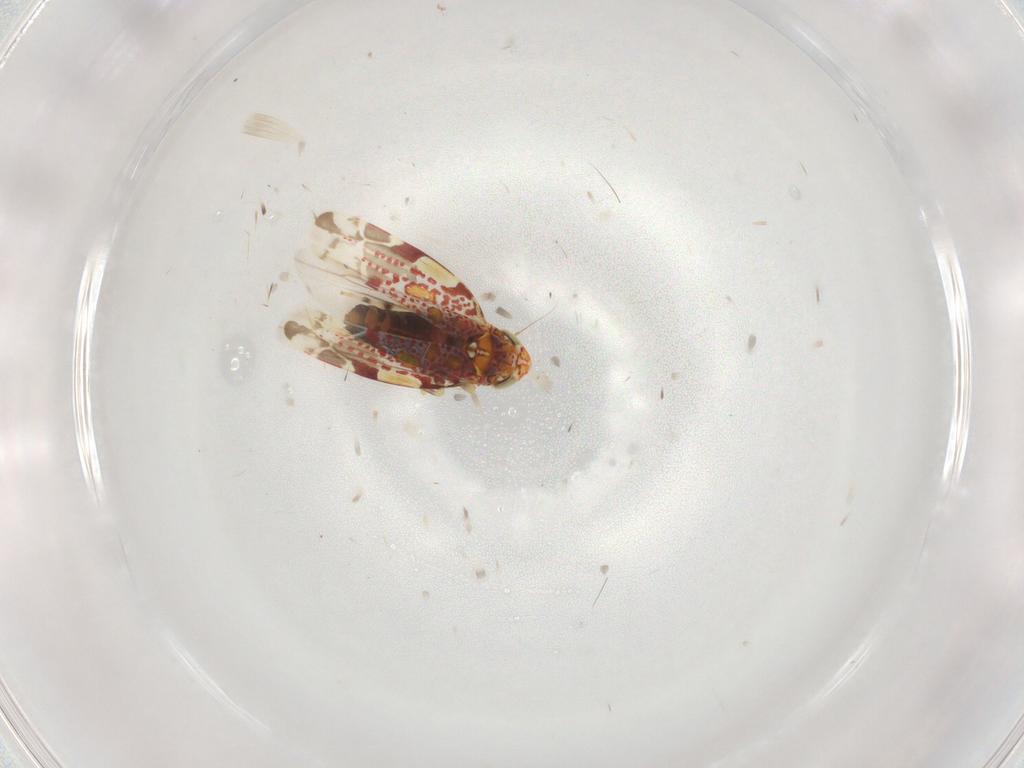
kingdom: Animalia
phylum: Arthropoda
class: Insecta
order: Hemiptera
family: Cicadellidae
